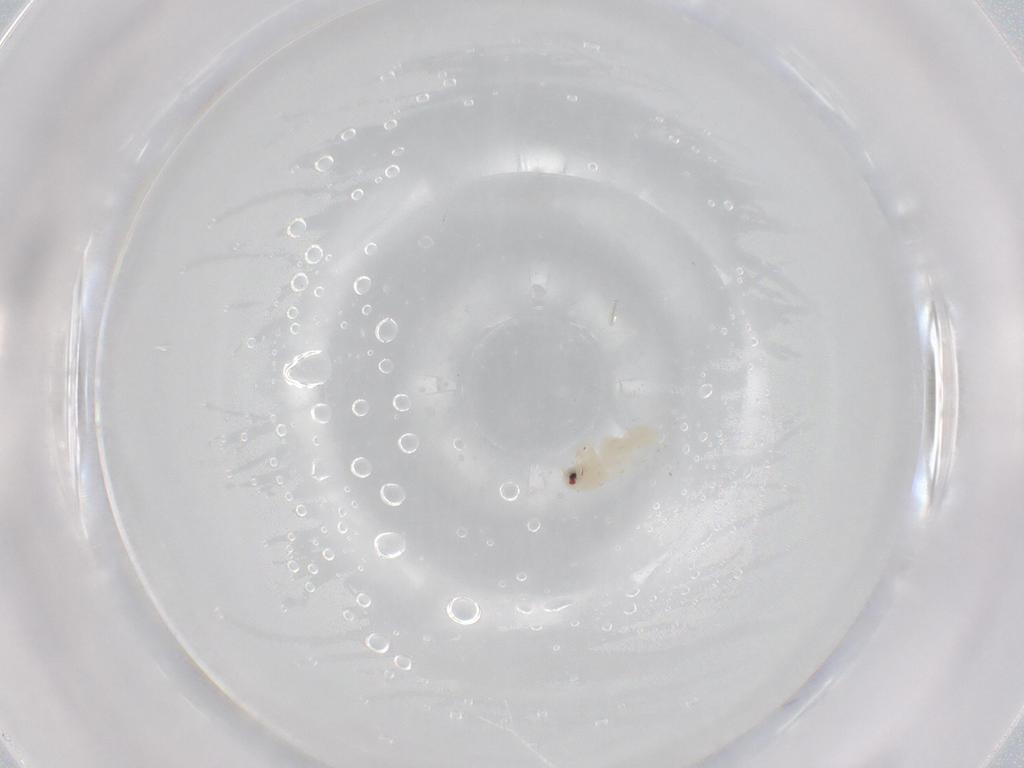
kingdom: Animalia
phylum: Arthropoda
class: Insecta
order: Hemiptera
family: Aleyrodidae
